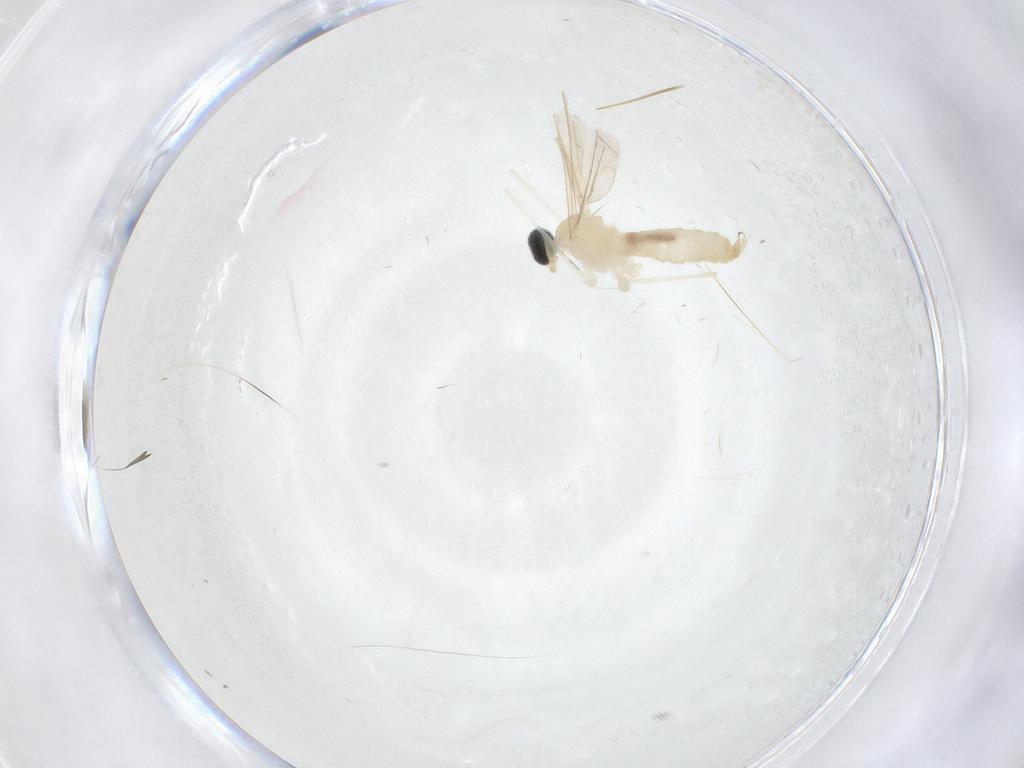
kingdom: Animalia
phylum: Arthropoda
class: Insecta
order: Diptera
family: Cecidomyiidae
